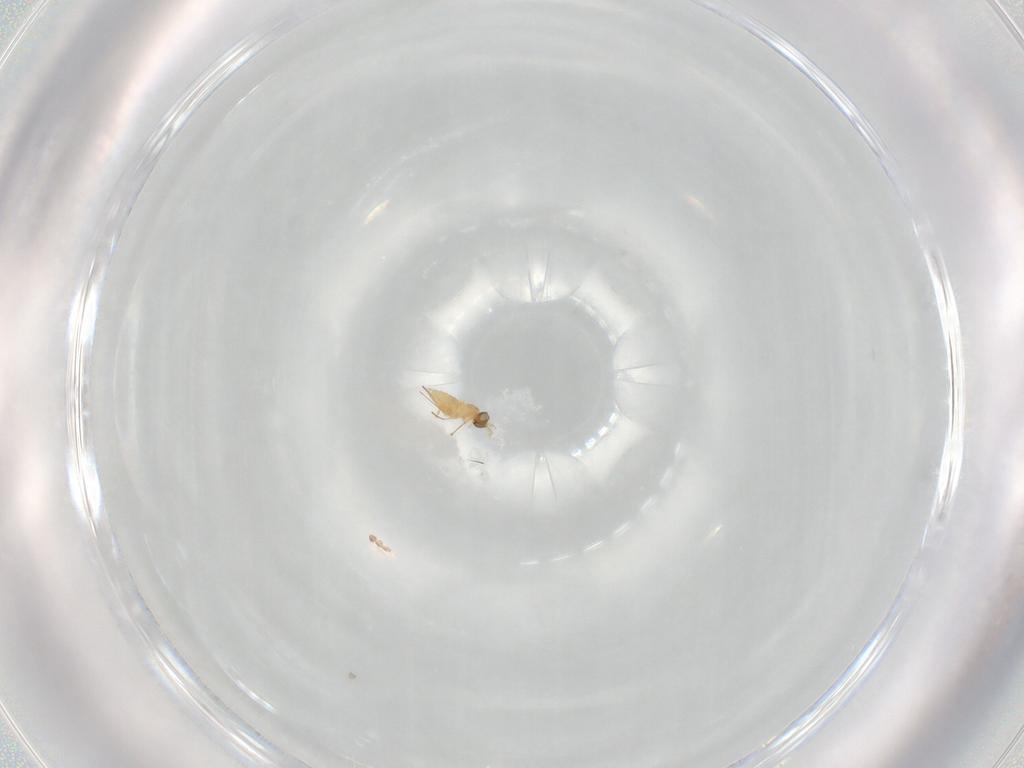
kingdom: Animalia
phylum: Arthropoda
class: Insecta
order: Hymenoptera
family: Mymaridae
